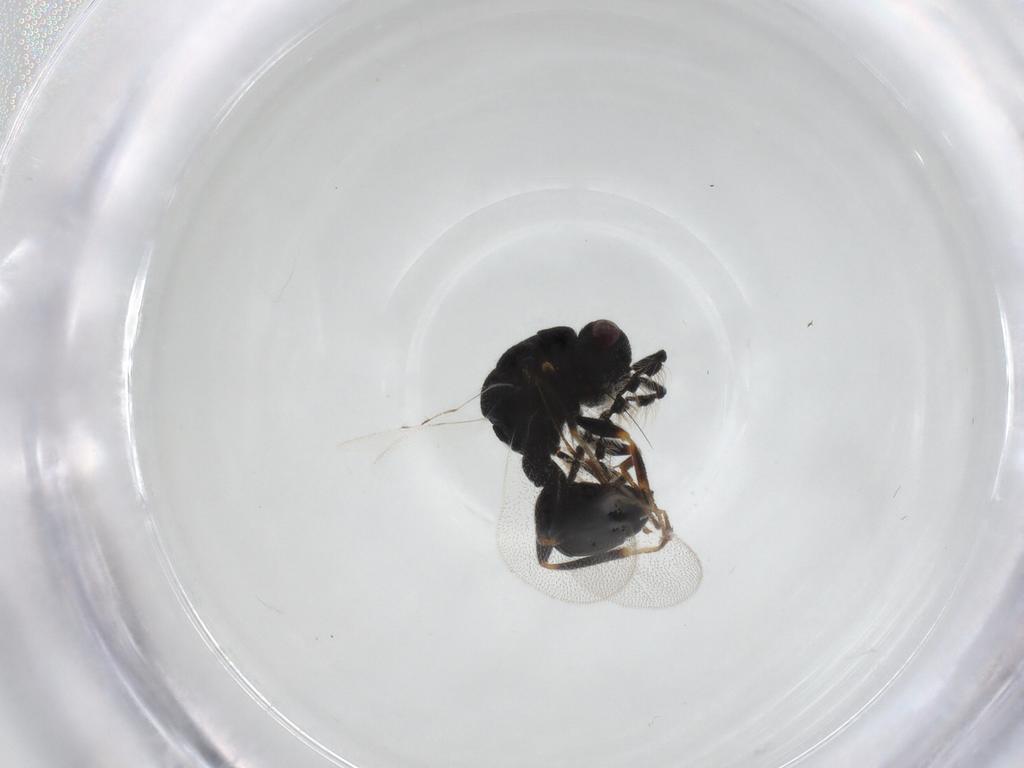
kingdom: Animalia
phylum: Arthropoda
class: Insecta
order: Hymenoptera
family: Eurytomidae
